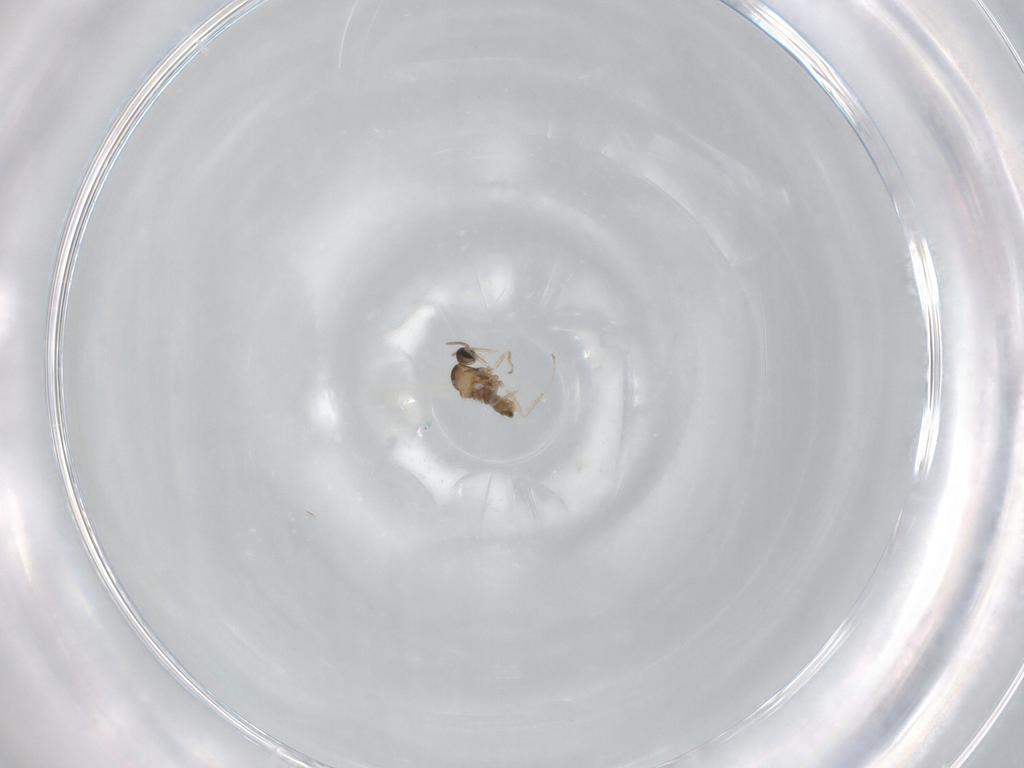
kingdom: Animalia
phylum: Arthropoda
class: Insecta
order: Diptera
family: Cecidomyiidae
